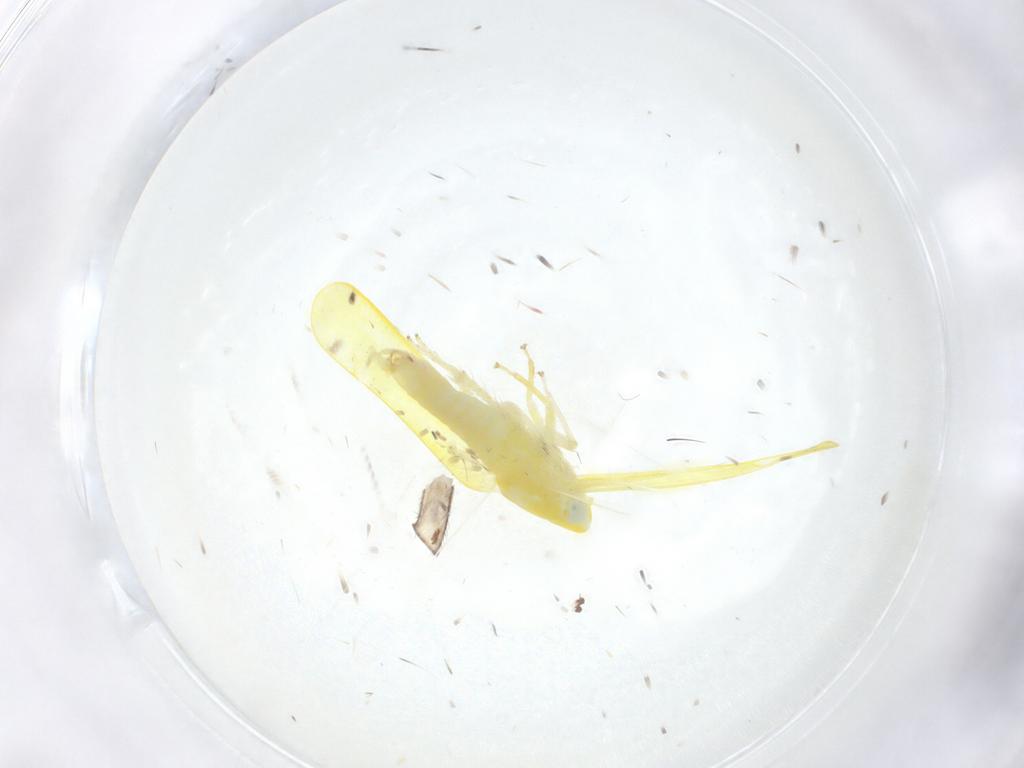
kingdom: Animalia
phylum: Arthropoda
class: Insecta
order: Hemiptera
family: Cicadellidae
